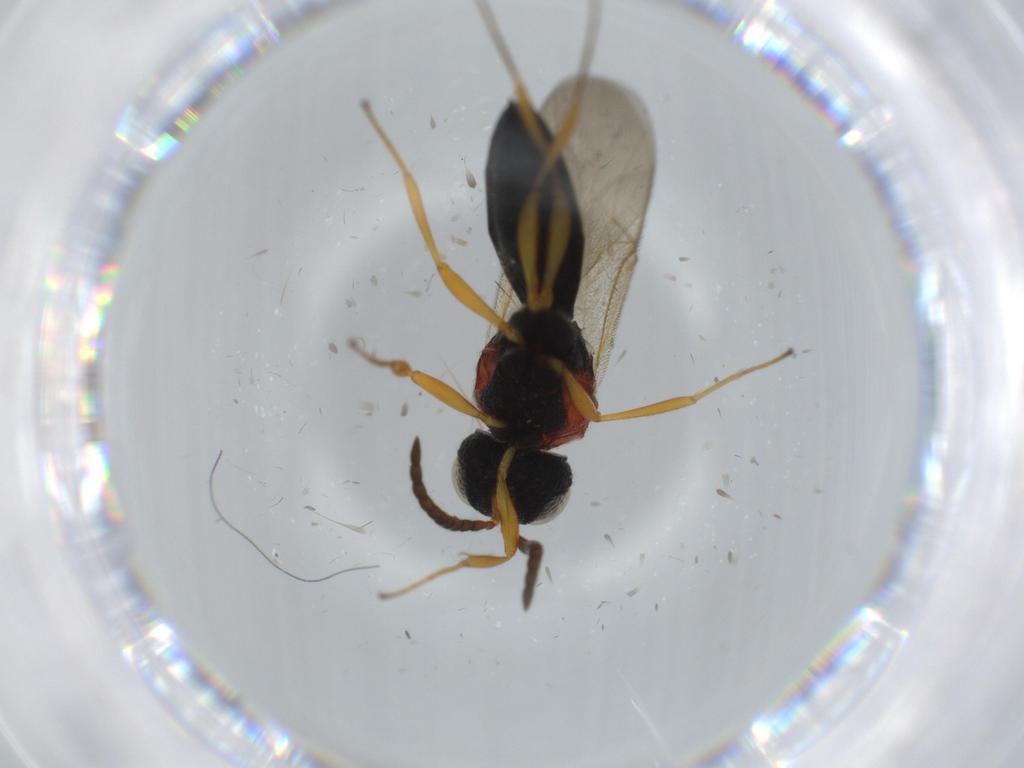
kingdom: Animalia
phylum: Arthropoda
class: Insecta
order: Hymenoptera
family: Scelionidae
